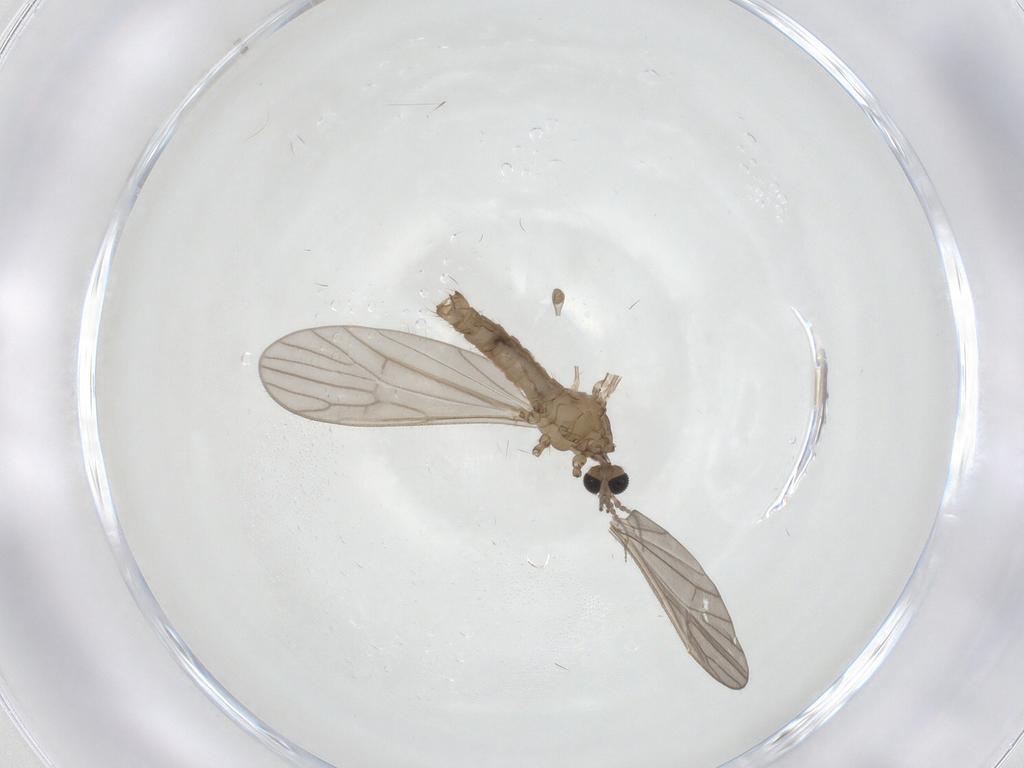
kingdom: Animalia
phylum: Arthropoda
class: Insecta
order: Diptera
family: Limoniidae
